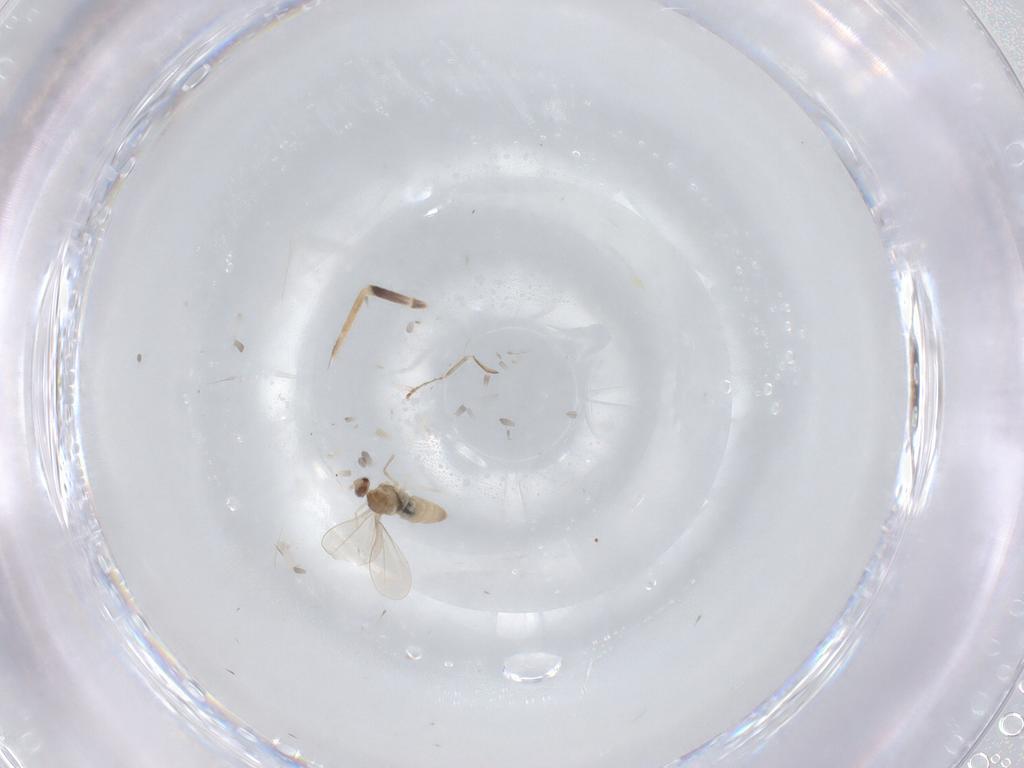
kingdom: Animalia
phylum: Arthropoda
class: Insecta
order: Diptera
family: Cecidomyiidae
